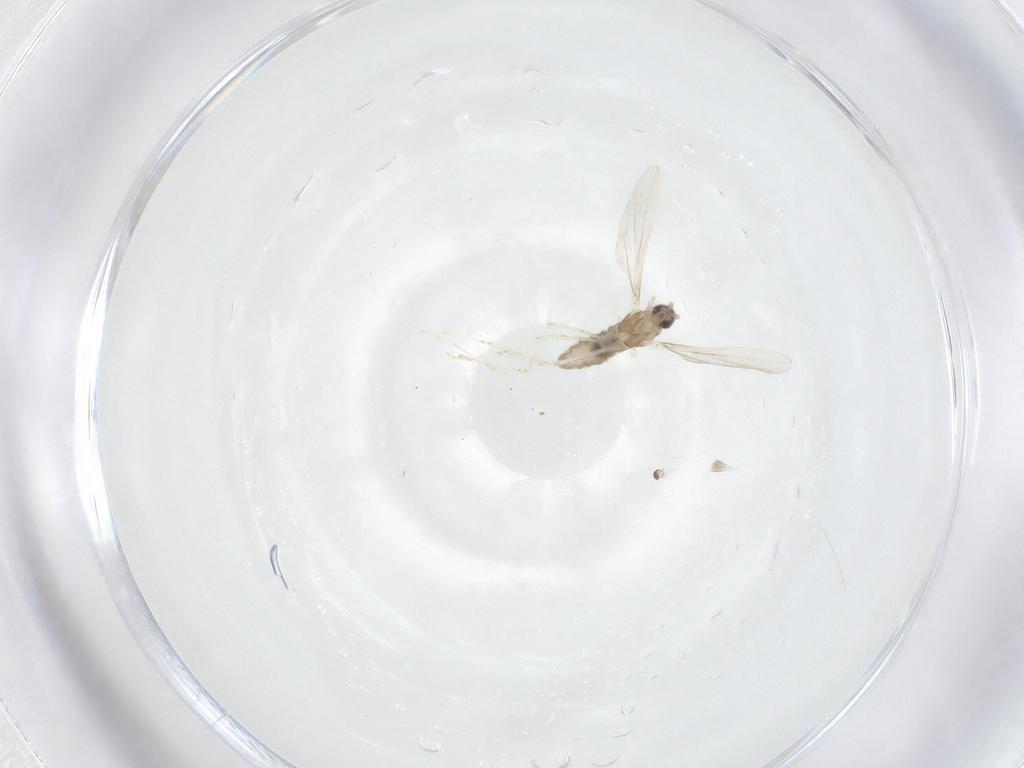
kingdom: Animalia
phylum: Arthropoda
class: Insecta
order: Diptera
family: Cecidomyiidae
